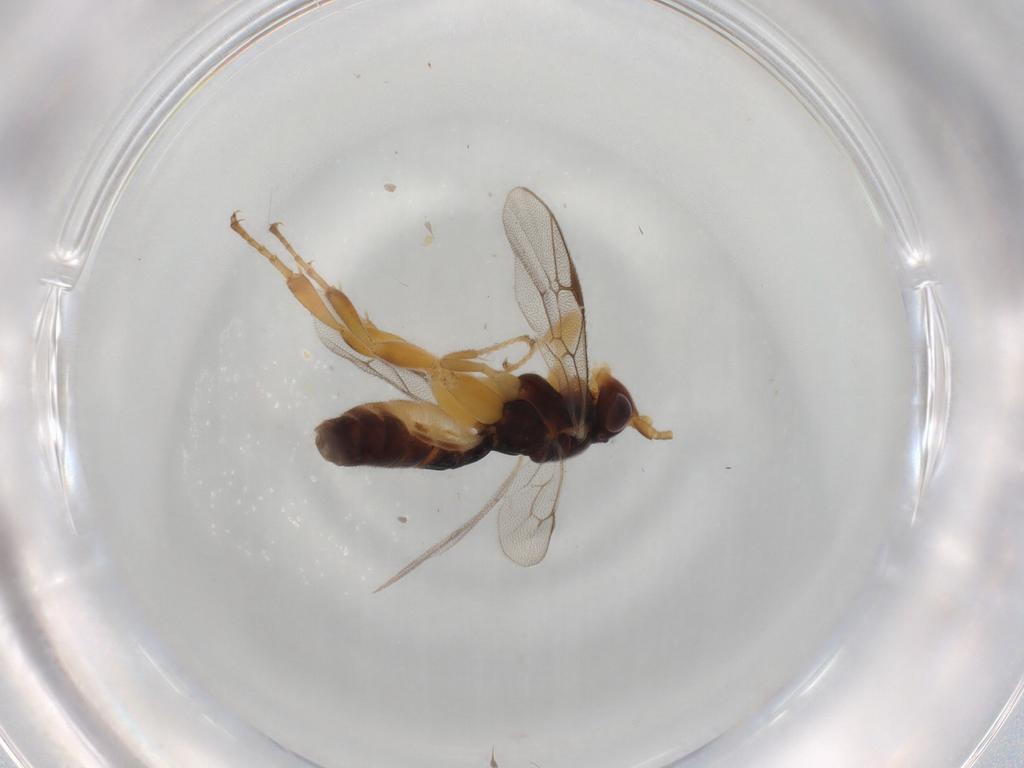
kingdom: Animalia
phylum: Arthropoda
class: Insecta
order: Hymenoptera
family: Ichneumonidae
